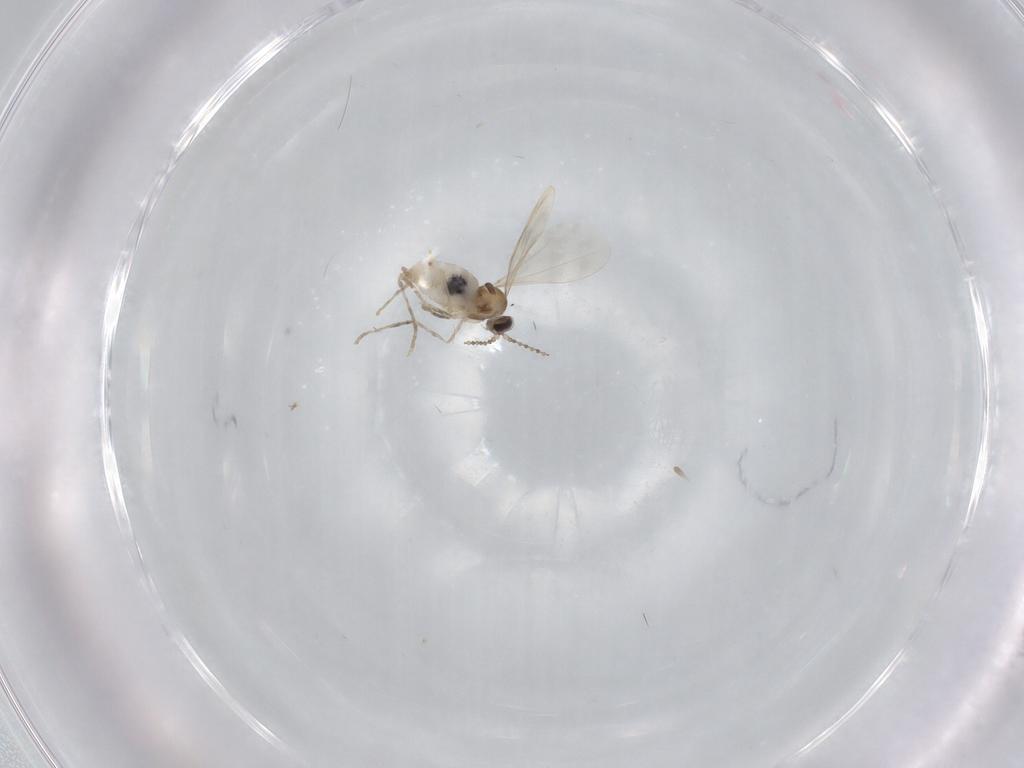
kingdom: Animalia
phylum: Arthropoda
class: Insecta
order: Diptera
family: Cecidomyiidae
